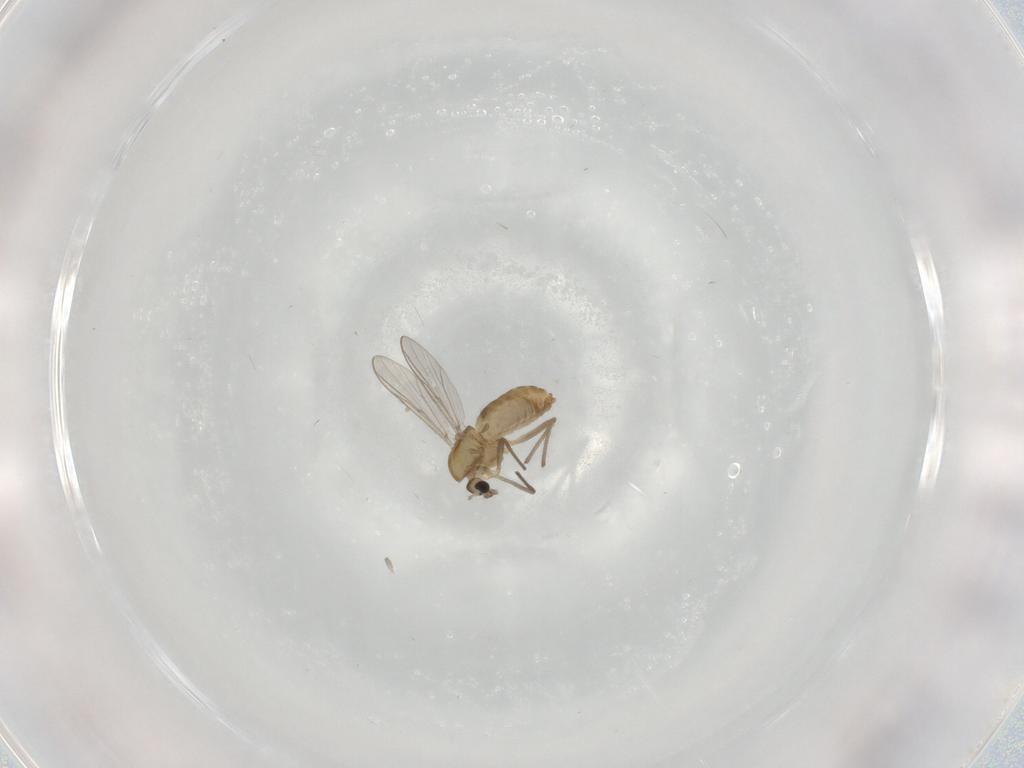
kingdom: Animalia
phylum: Arthropoda
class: Insecta
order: Diptera
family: Chironomidae
